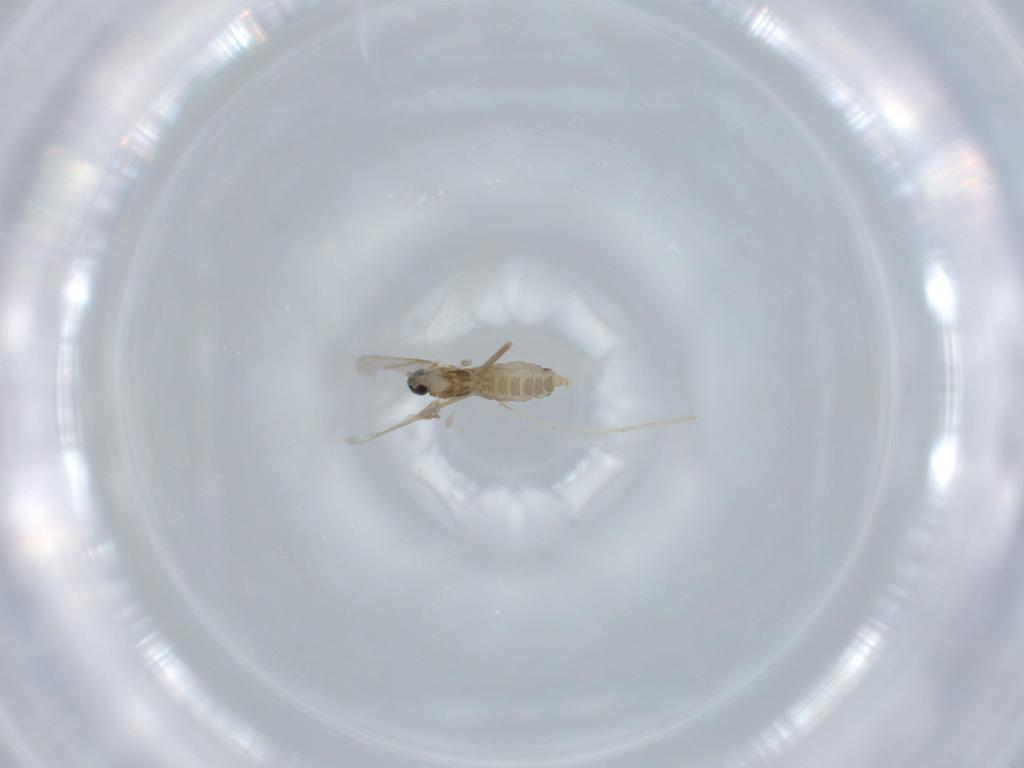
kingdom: Animalia
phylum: Arthropoda
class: Insecta
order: Diptera
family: Cecidomyiidae
